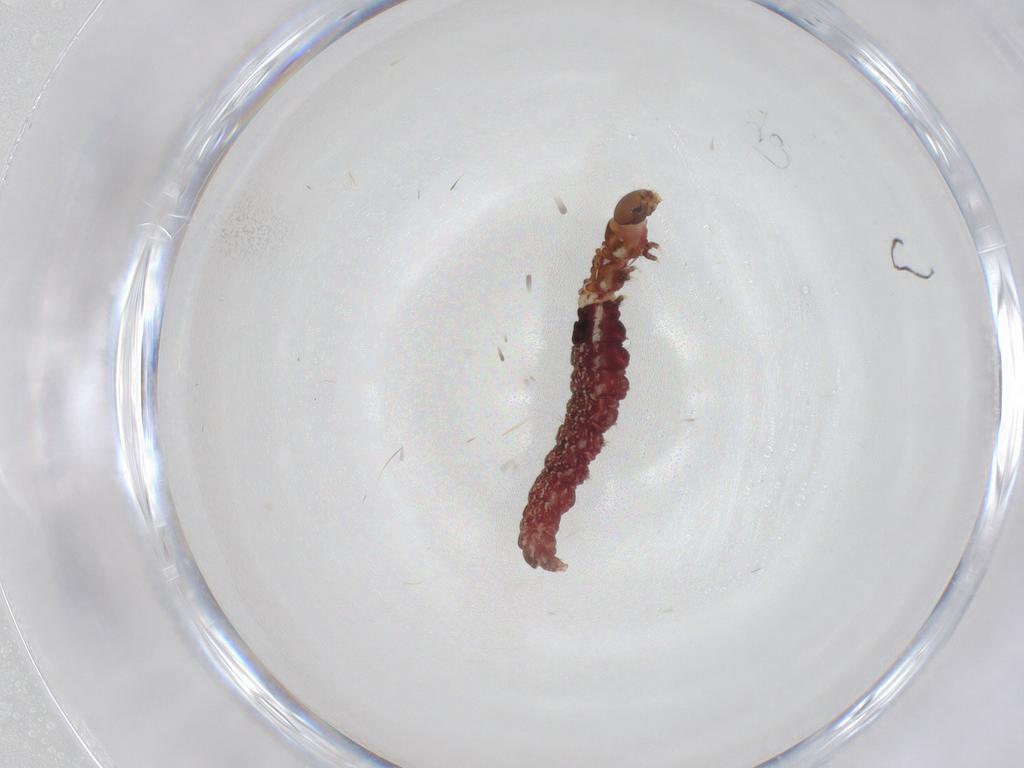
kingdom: Animalia
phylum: Arthropoda
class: Insecta
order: Lepidoptera
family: Gelechiidae
